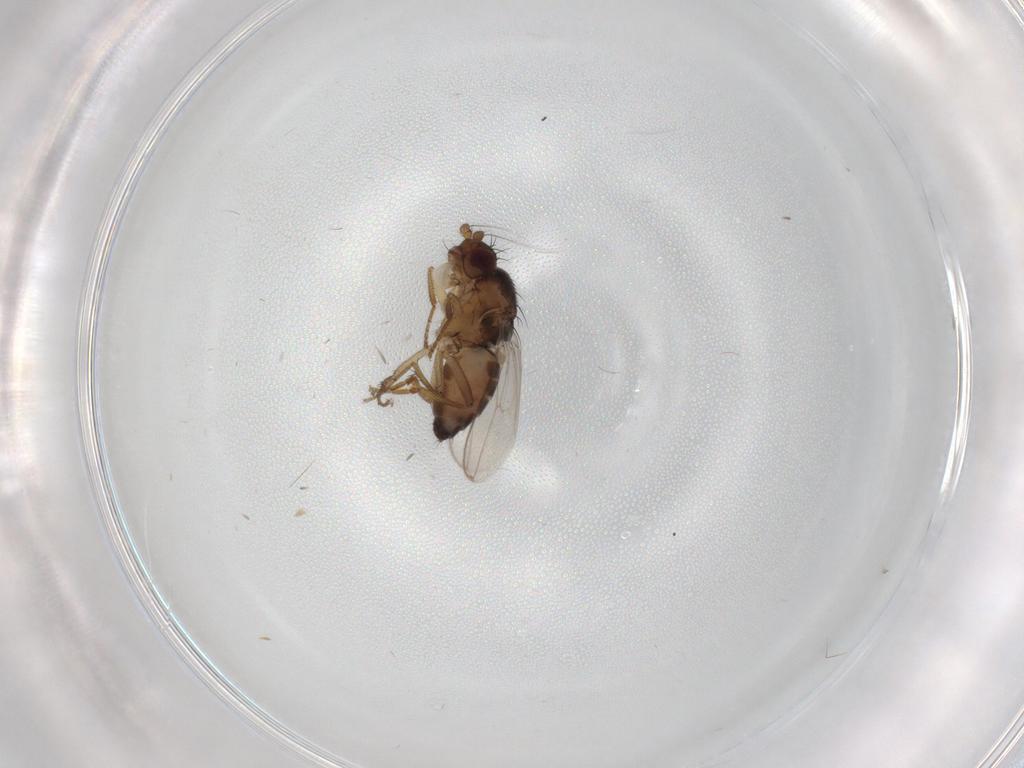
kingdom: Animalia
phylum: Arthropoda
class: Insecta
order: Diptera
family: Sphaeroceridae
